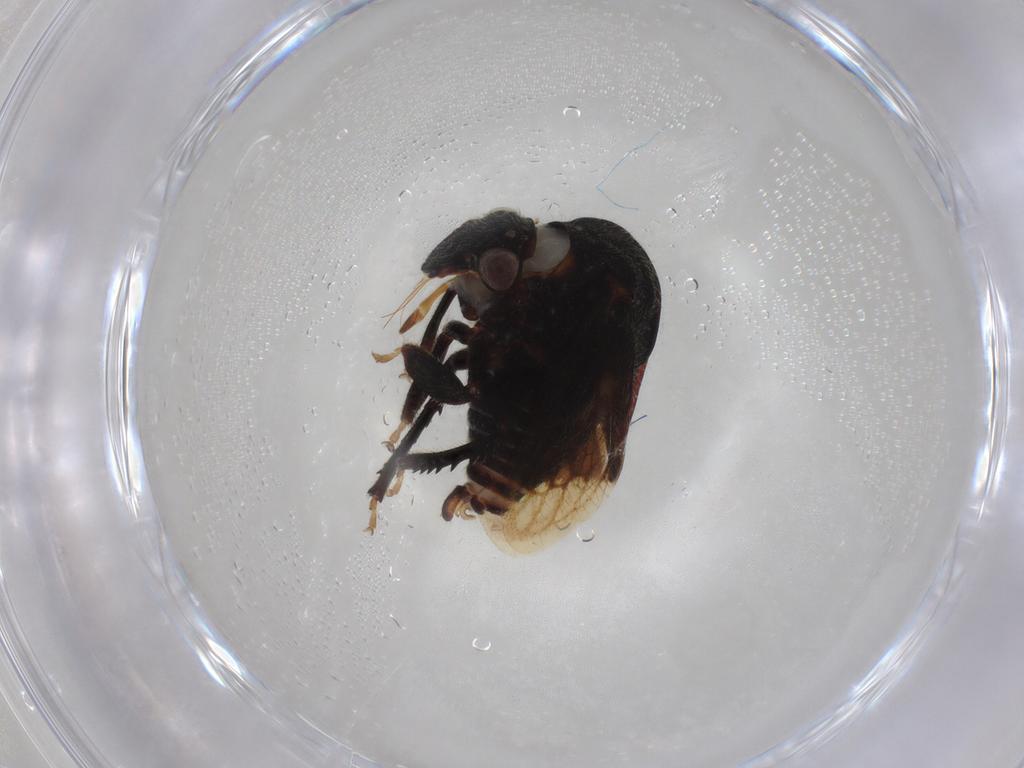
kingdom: Animalia
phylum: Arthropoda
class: Insecta
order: Hemiptera
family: Membracidae
